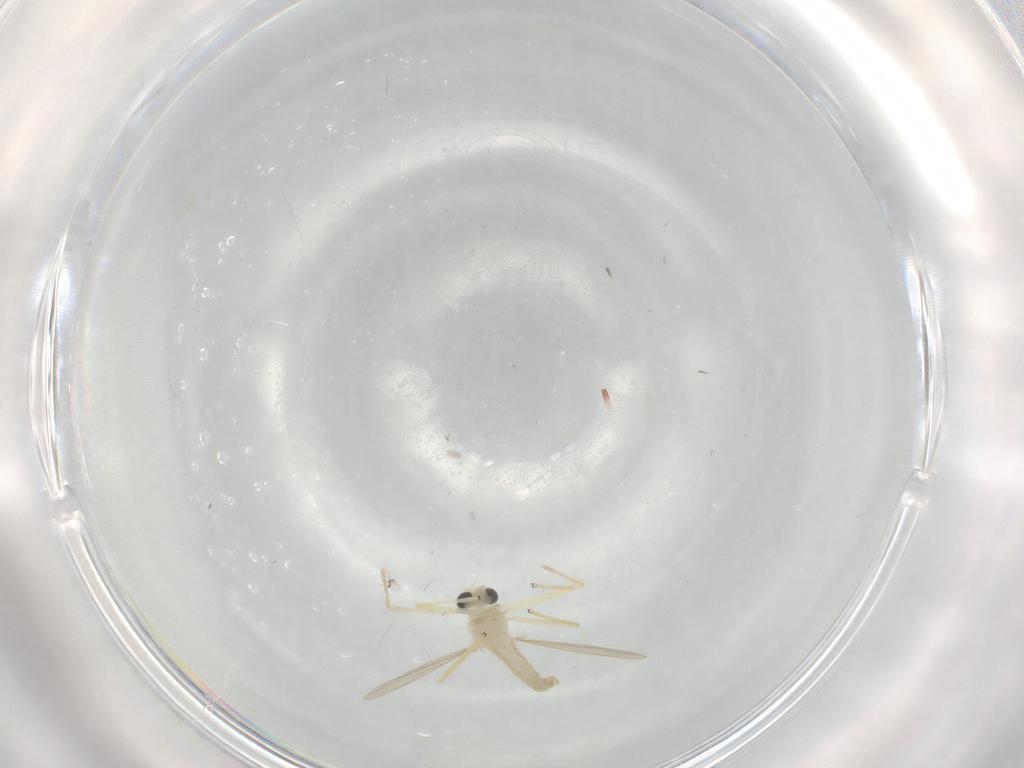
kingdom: Animalia
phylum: Arthropoda
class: Insecta
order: Diptera
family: Chironomidae
